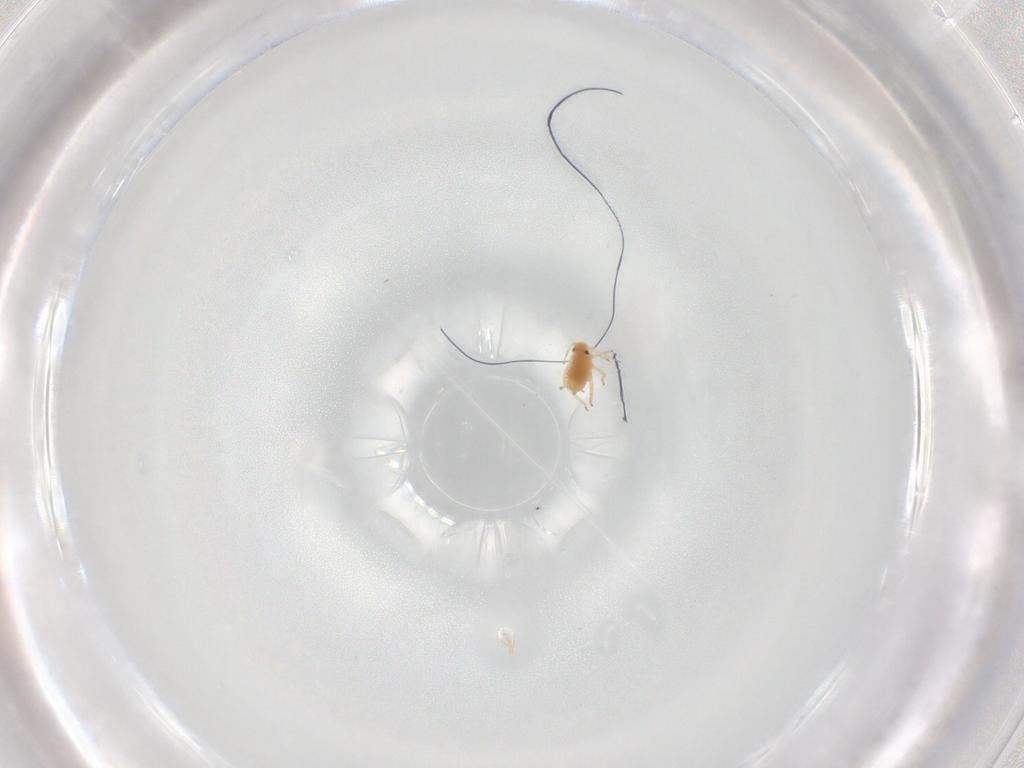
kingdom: Animalia
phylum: Arthropoda
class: Insecta
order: Hemiptera
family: Aphididae
